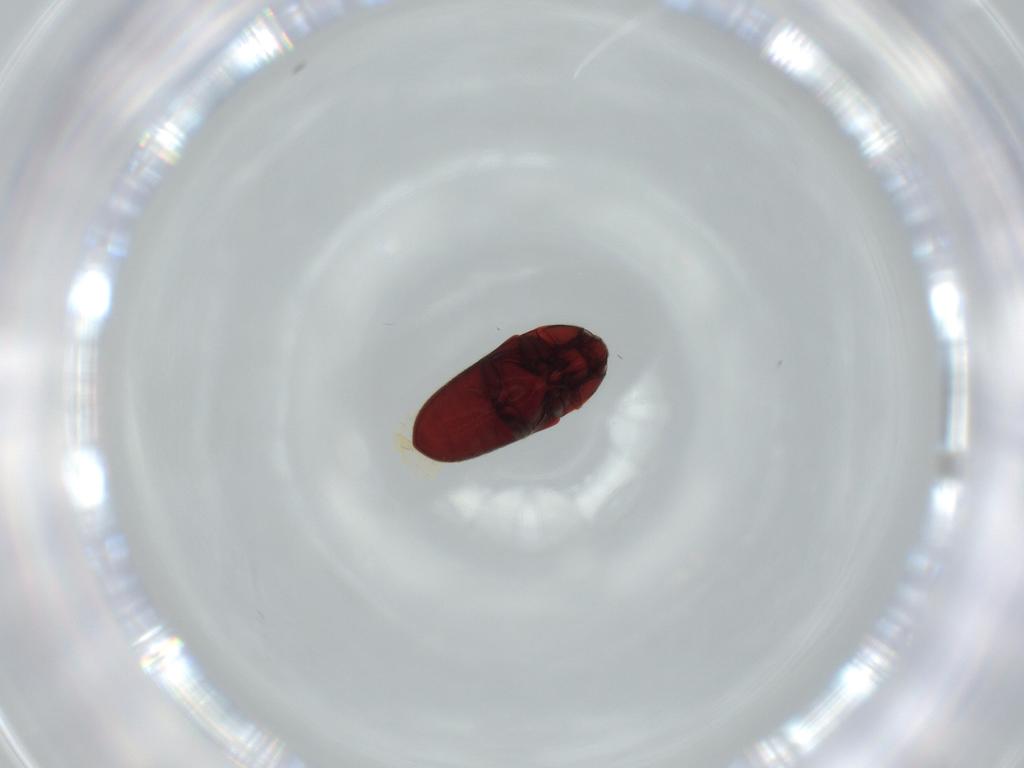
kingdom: Animalia
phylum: Arthropoda
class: Insecta
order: Coleoptera
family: Throscidae
